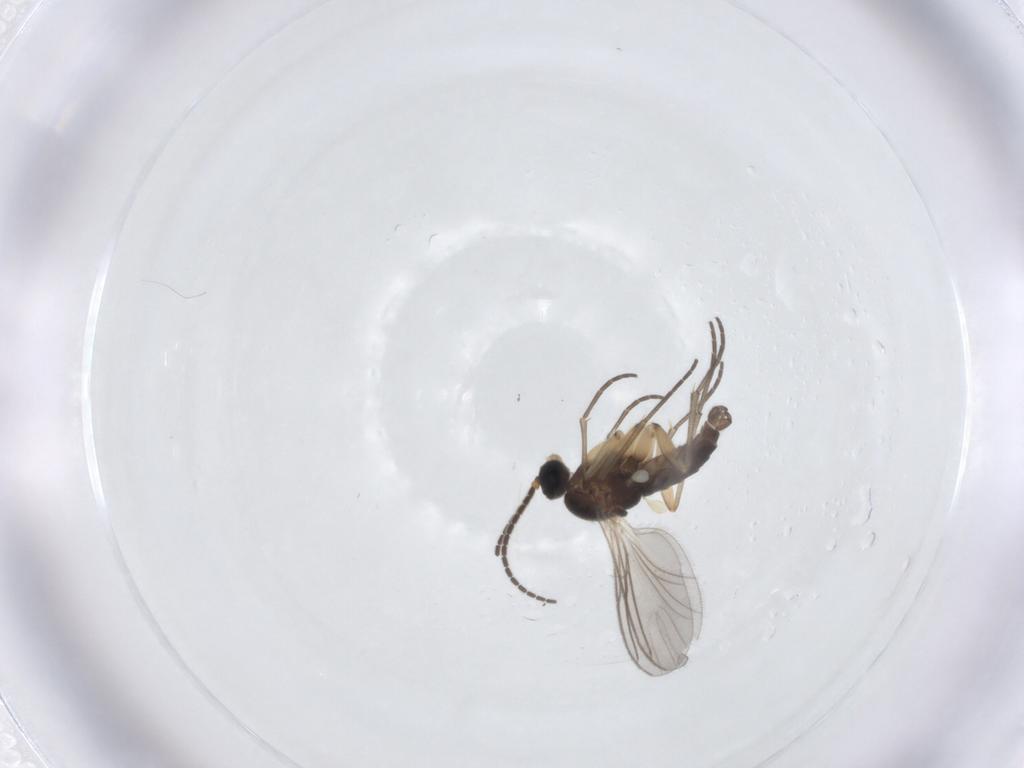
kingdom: Animalia
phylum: Arthropoda
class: Insecta
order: Diptera
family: Sciaridae
